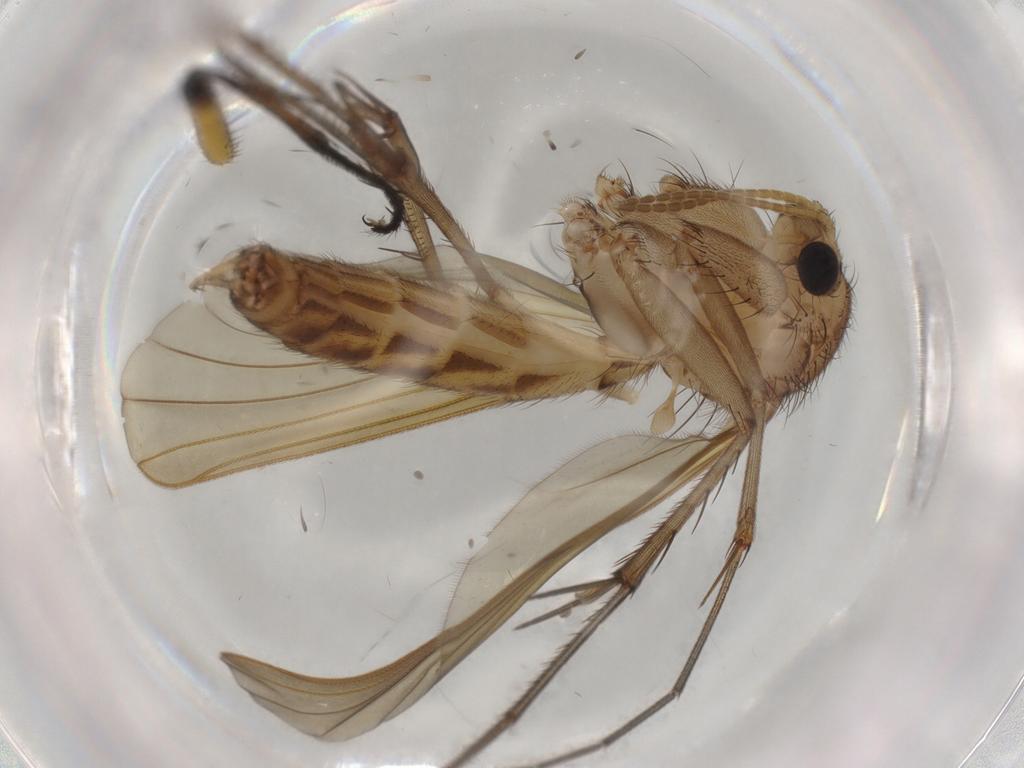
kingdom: Animalia
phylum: Arthropoda
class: Insecta
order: Diptera
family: Mycetophilidae
